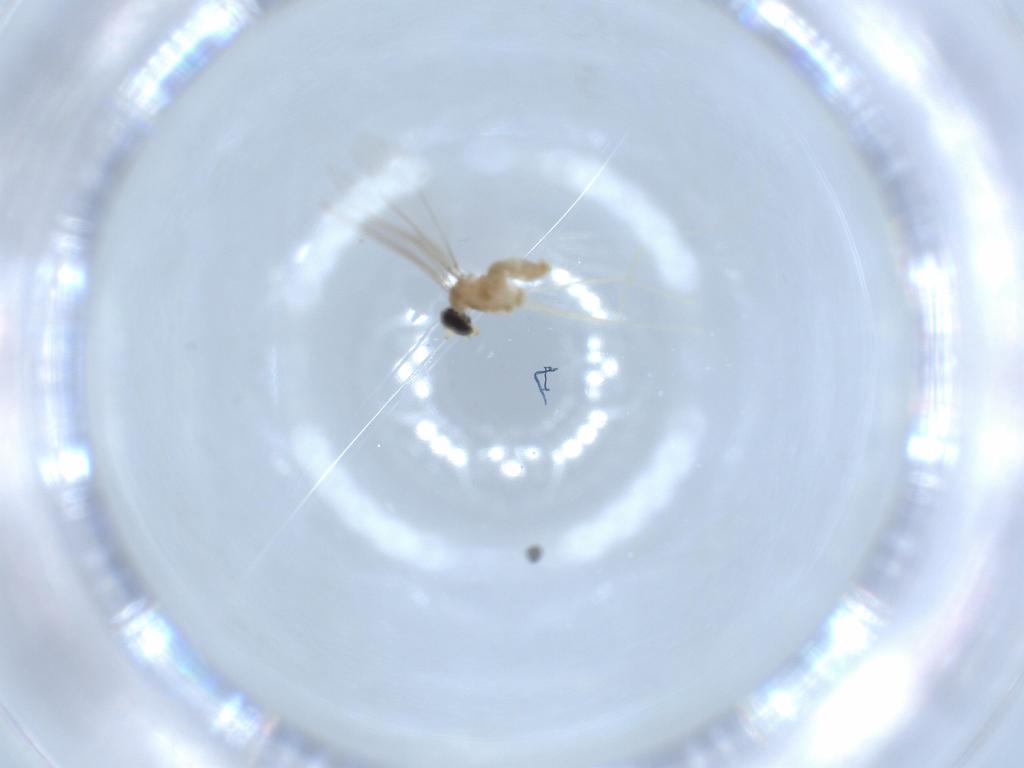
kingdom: Animalia
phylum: Arthropoda
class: Insecta
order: Diptera
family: Cecidomyiidae
